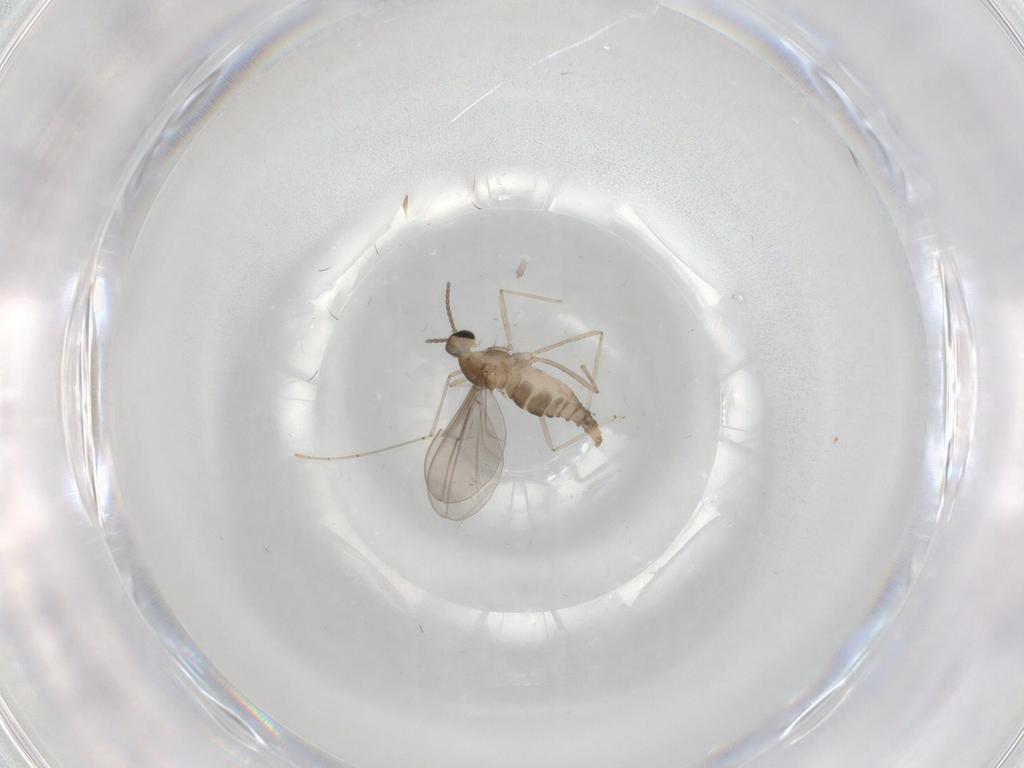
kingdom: Animalia
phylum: Arthropoda
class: Insecta
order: Diptera
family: Cecidomyiidae
